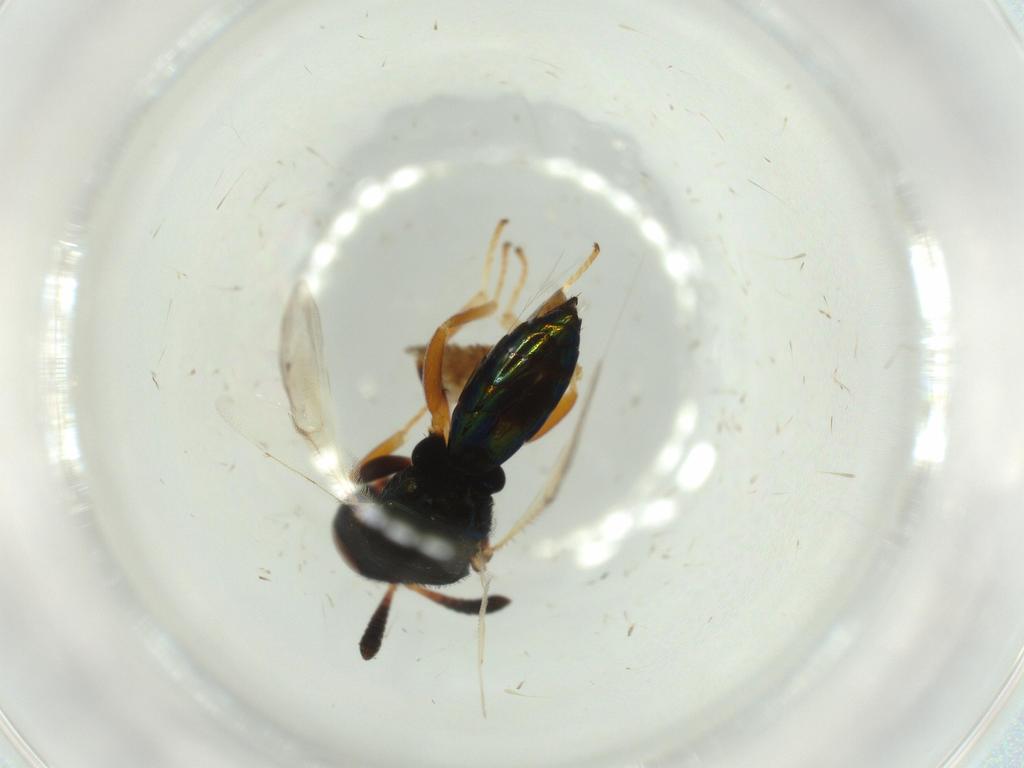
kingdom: Animalia
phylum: Arthropoda
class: Insecta
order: Hymenoptera
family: Agaonidae
